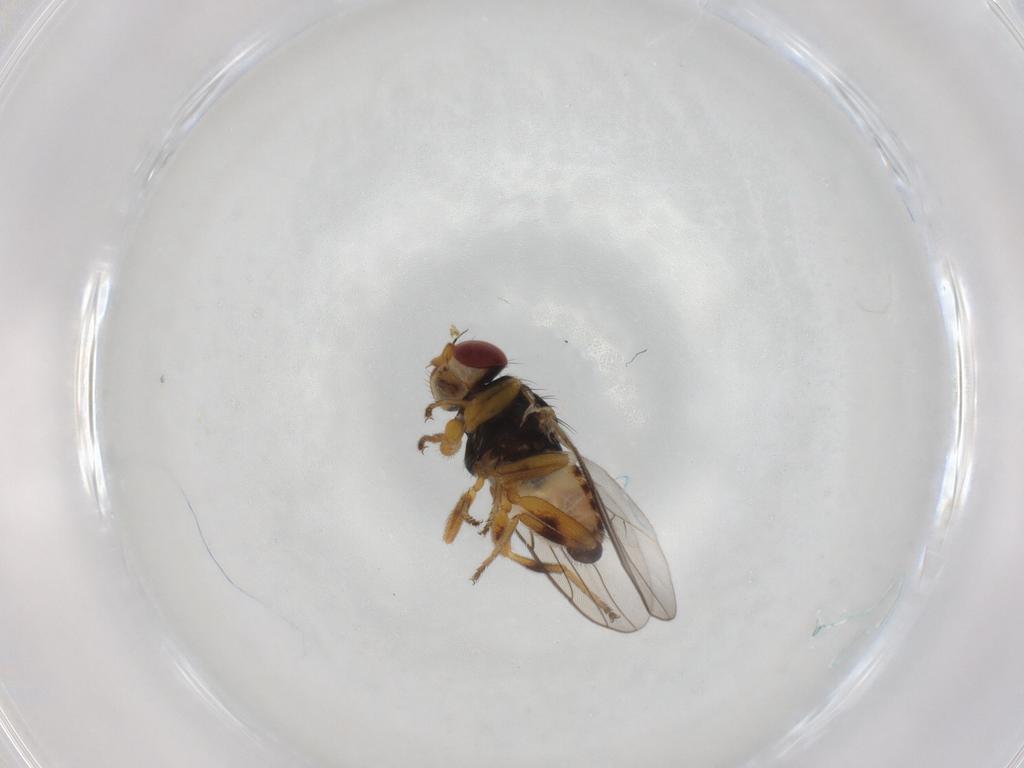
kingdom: Animalia
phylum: Arthropoda
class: Insecta
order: Diptera
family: Chloropidae
